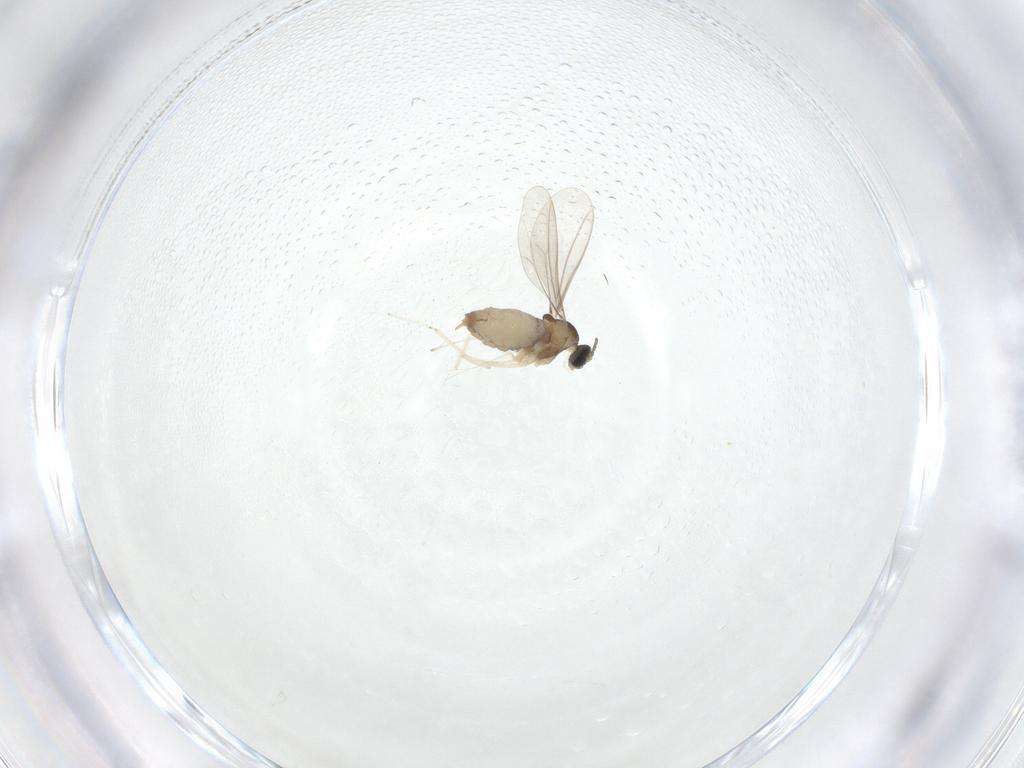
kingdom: Animalia
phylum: Arthropoda
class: Insecta
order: Diptera
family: Cecidomyiidae
